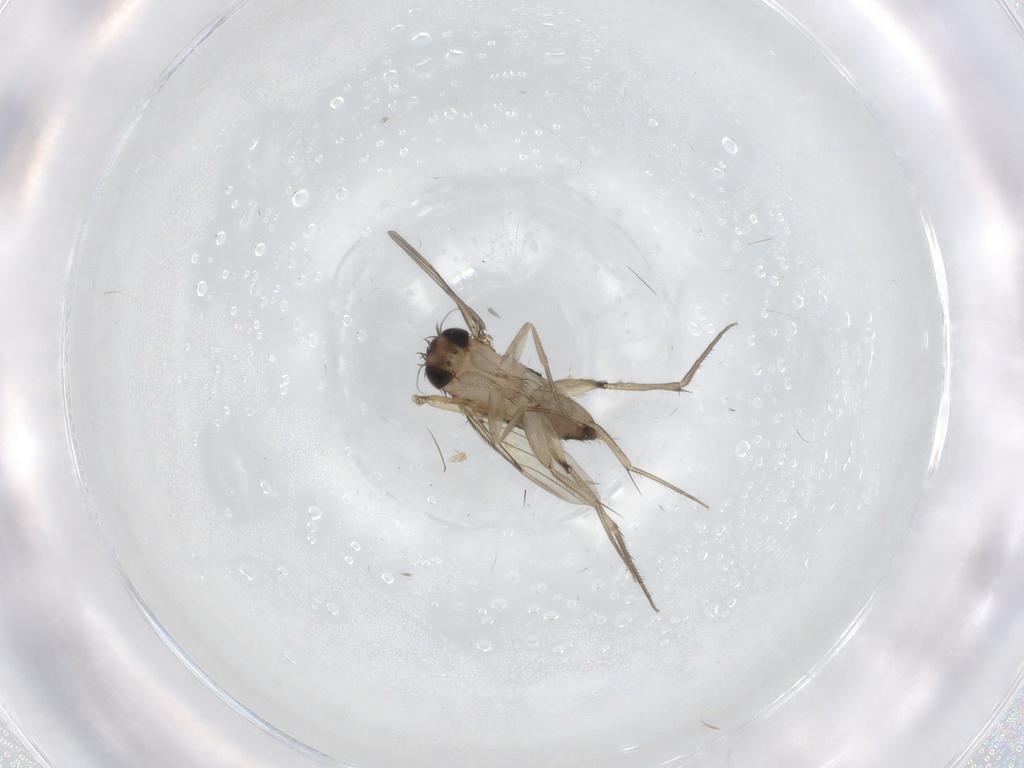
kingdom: Animalia
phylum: Arthropoda
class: Insecta
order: Diptera
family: Phoridae
